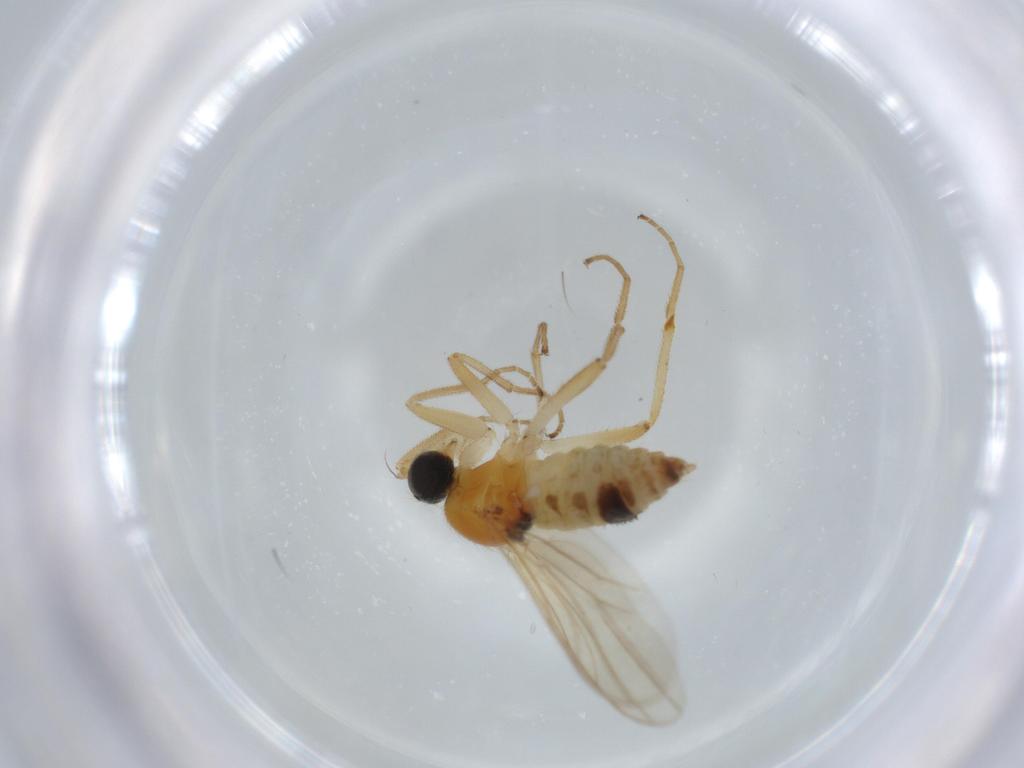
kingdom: Animalia
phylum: Arthropoda
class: Insecta
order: Diptera
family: Hybotidae
